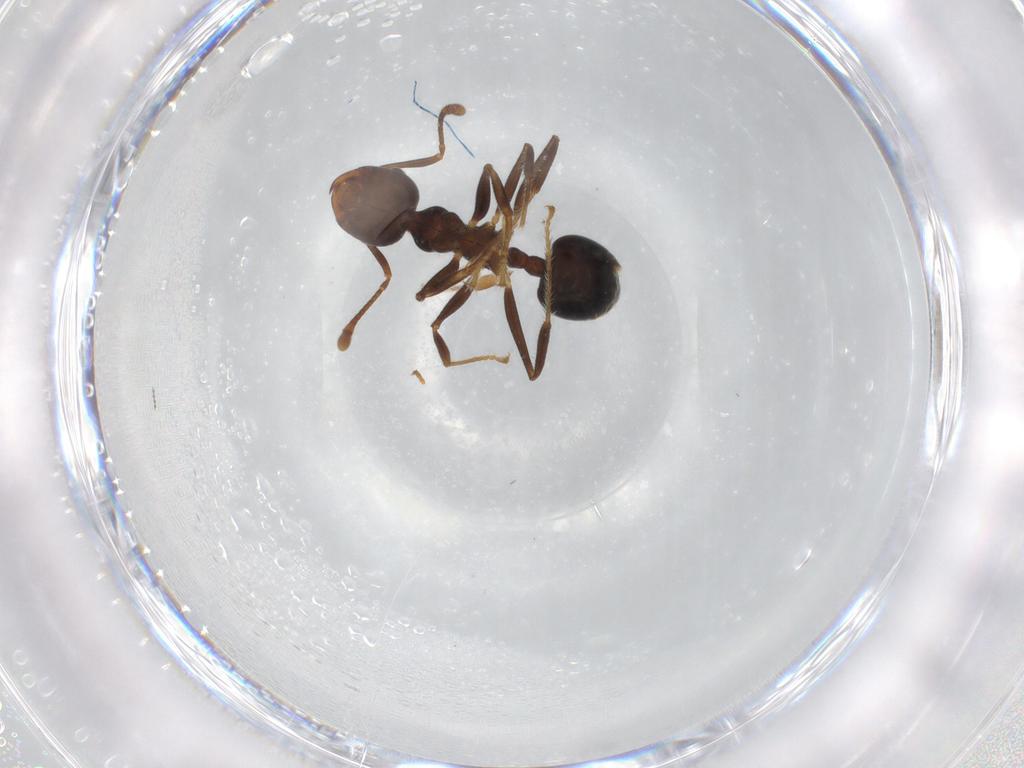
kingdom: Animalia
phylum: Arthropoda
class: Insecta
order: Hymenoptera
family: Formicidae
